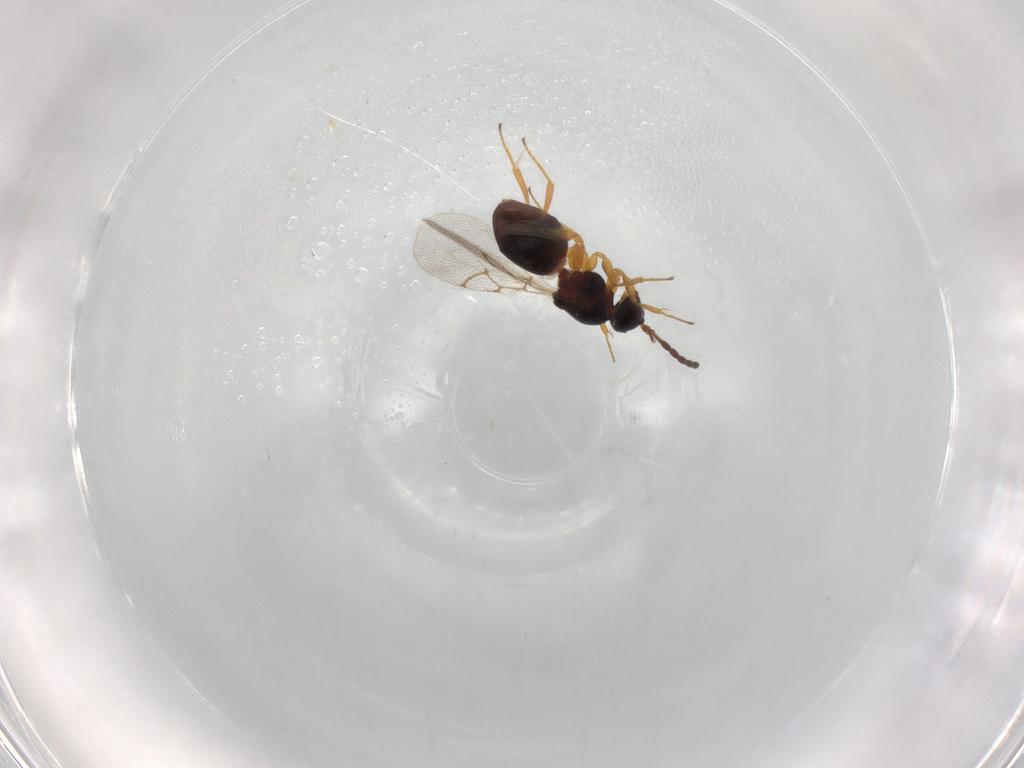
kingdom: Animalia
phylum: Arthropoda
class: Insecta
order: Hymenoptera
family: Figitidae
